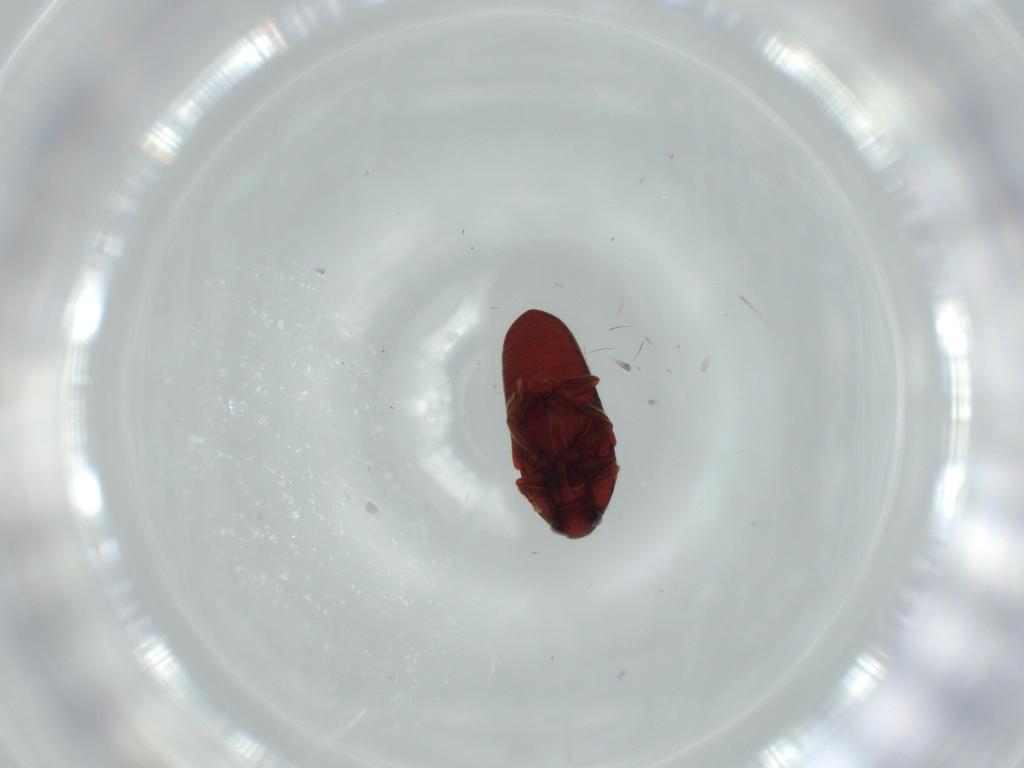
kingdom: Animalia
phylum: Arthropoda
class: Insecta
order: Coleoptera
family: Throscidae
